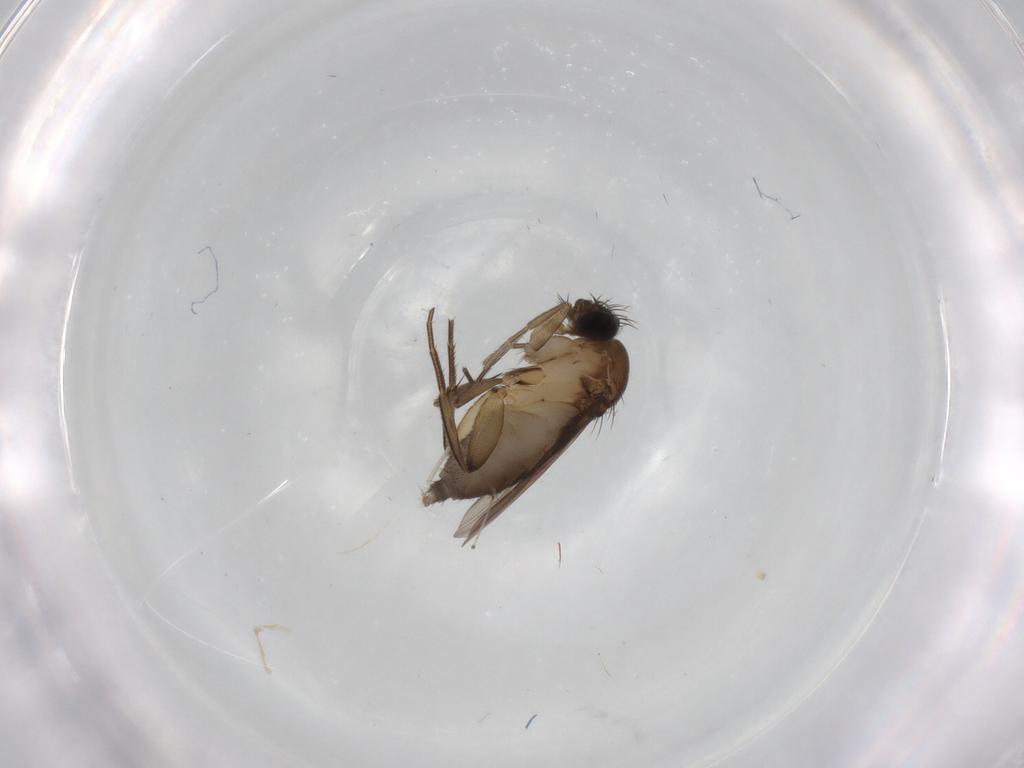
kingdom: Animalia
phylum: Arthropoda
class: Insecta
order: Diptera
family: Phoridae
